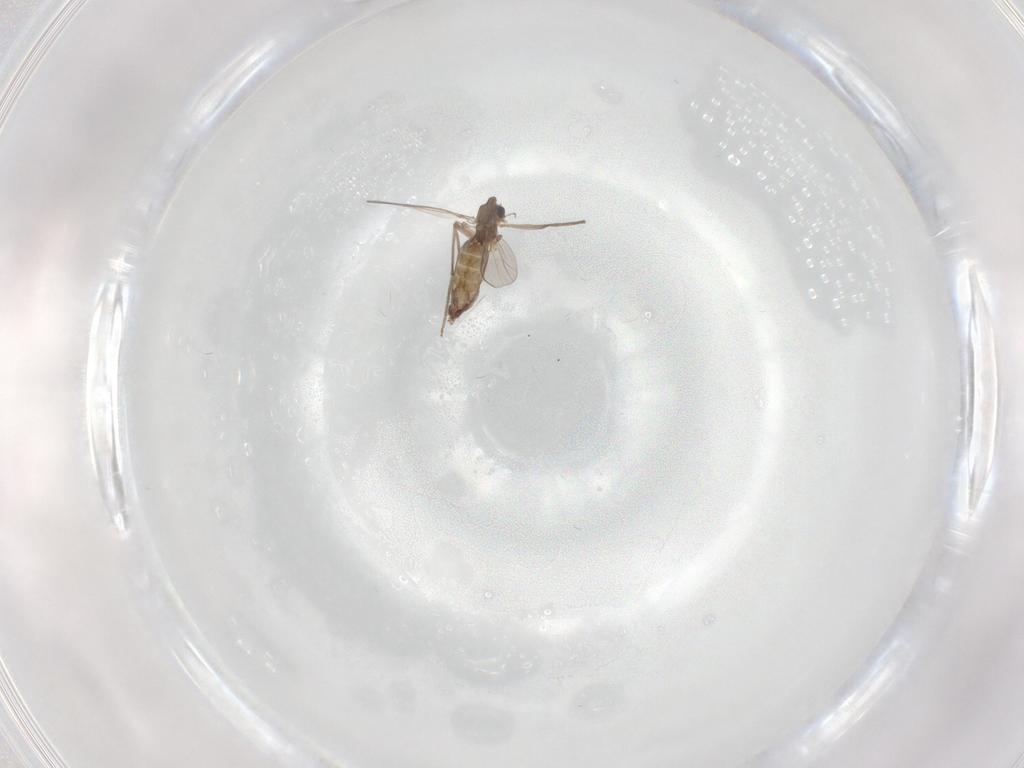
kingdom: Animalia
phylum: Arthropoda
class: Insecta
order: Diptera
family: Chironomidae
